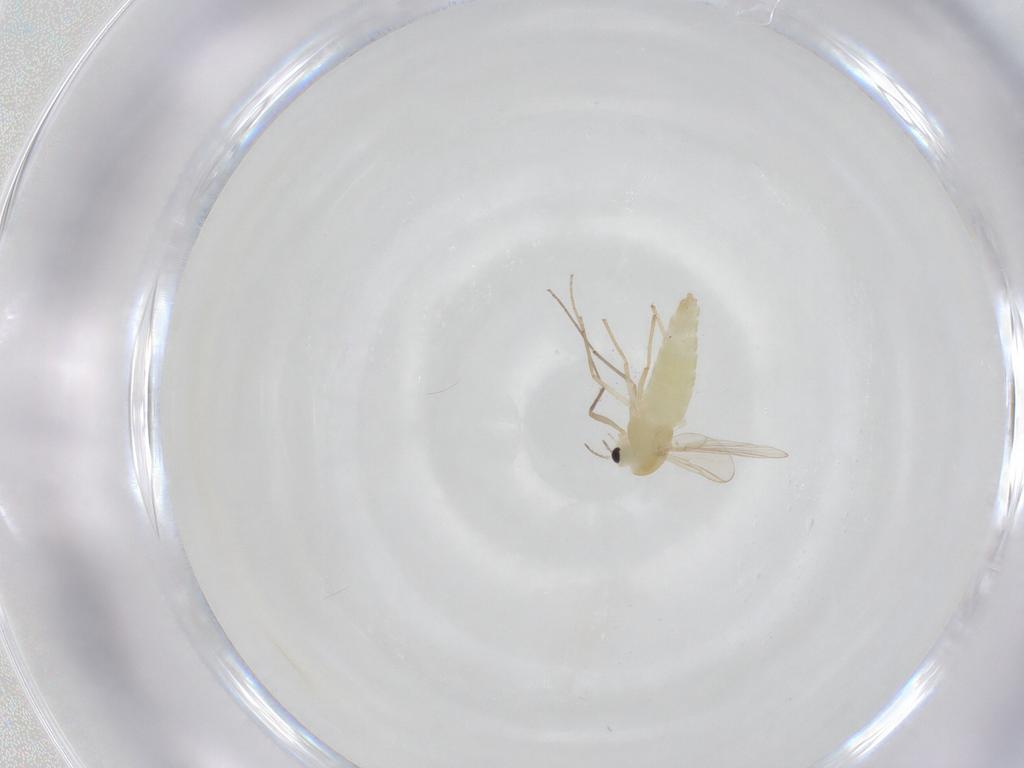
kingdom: Animalia
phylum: Arthropoda
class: Insecta
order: Diptera
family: Chironomidae
